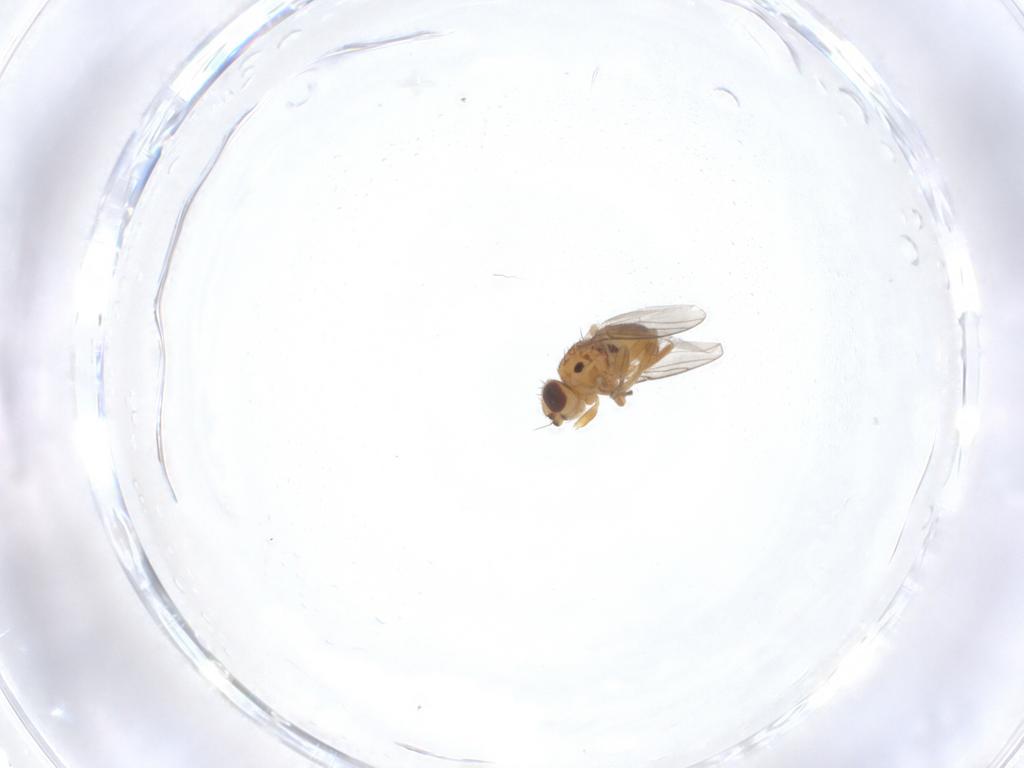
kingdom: Animalia
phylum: Arthropoda
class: Insecta
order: Diptera
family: Chloropidae
